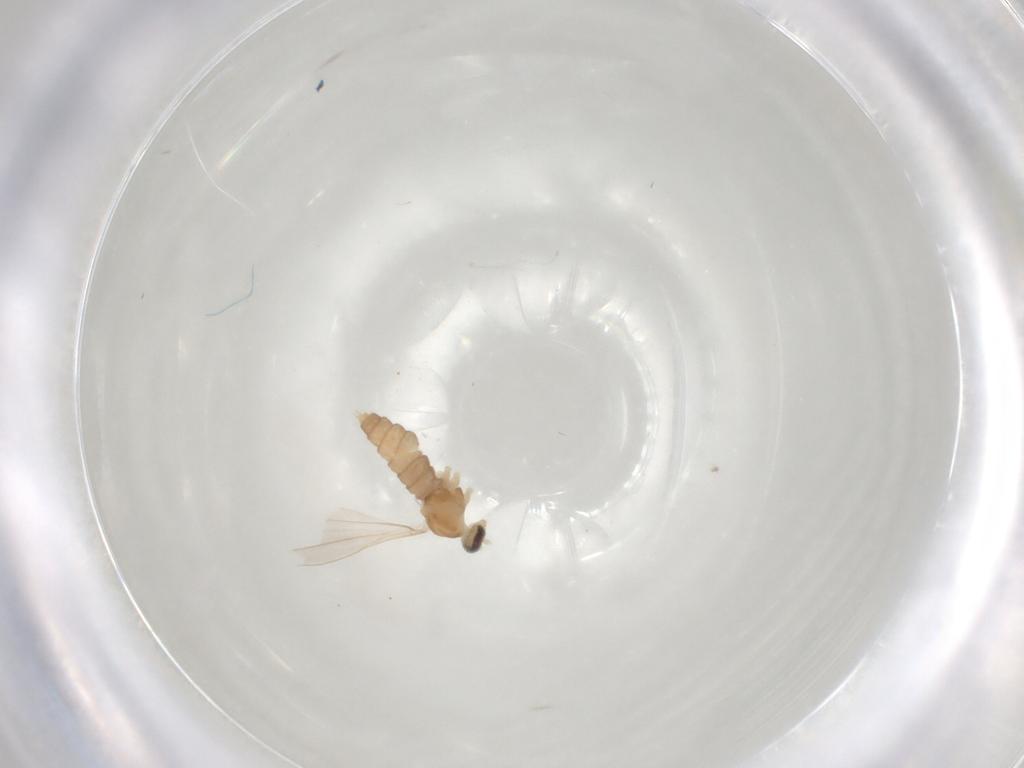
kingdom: Animalia
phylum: Arthropoda
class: Insecta
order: Diptera
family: Cecidomyiidae
